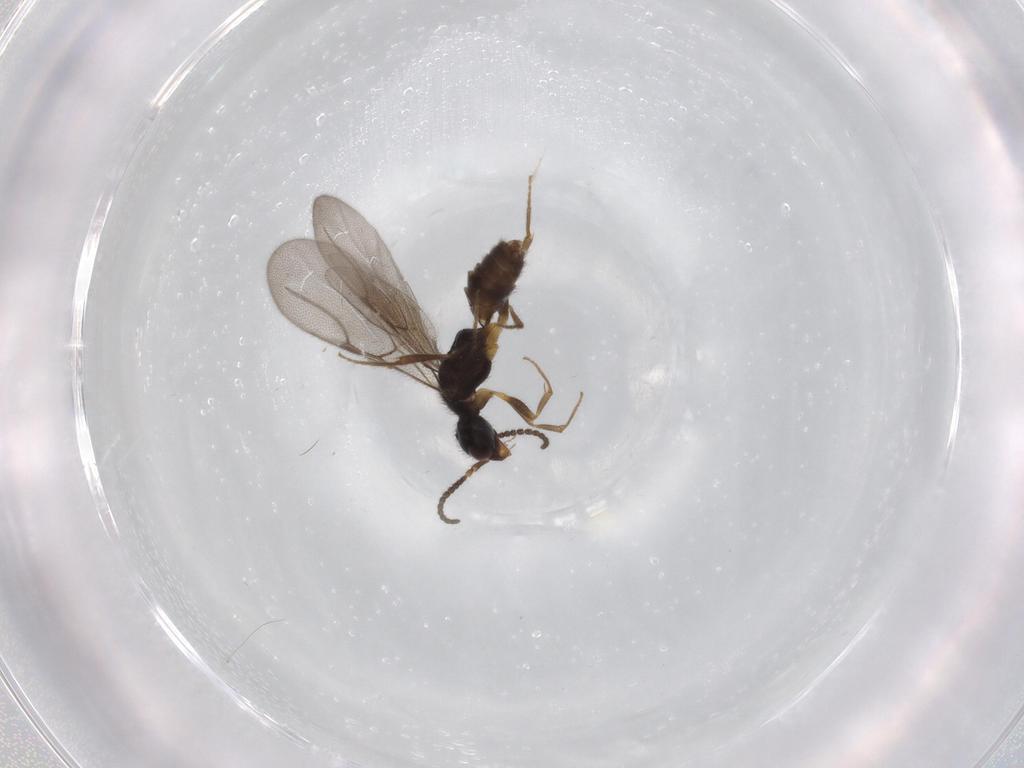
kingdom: Animalia
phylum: Arthropoda
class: Insecta
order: Hymenoptera
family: Bethylidae
